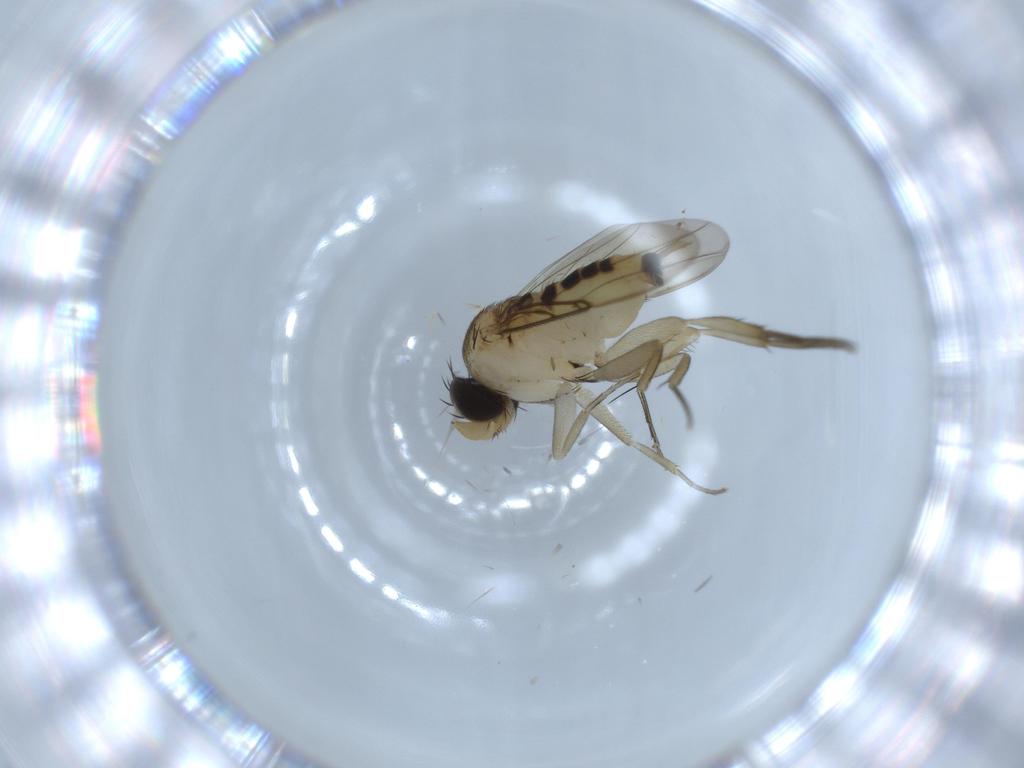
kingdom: Animalia
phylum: Arthropoda
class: Insecta
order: Diptera
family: Phoridae
